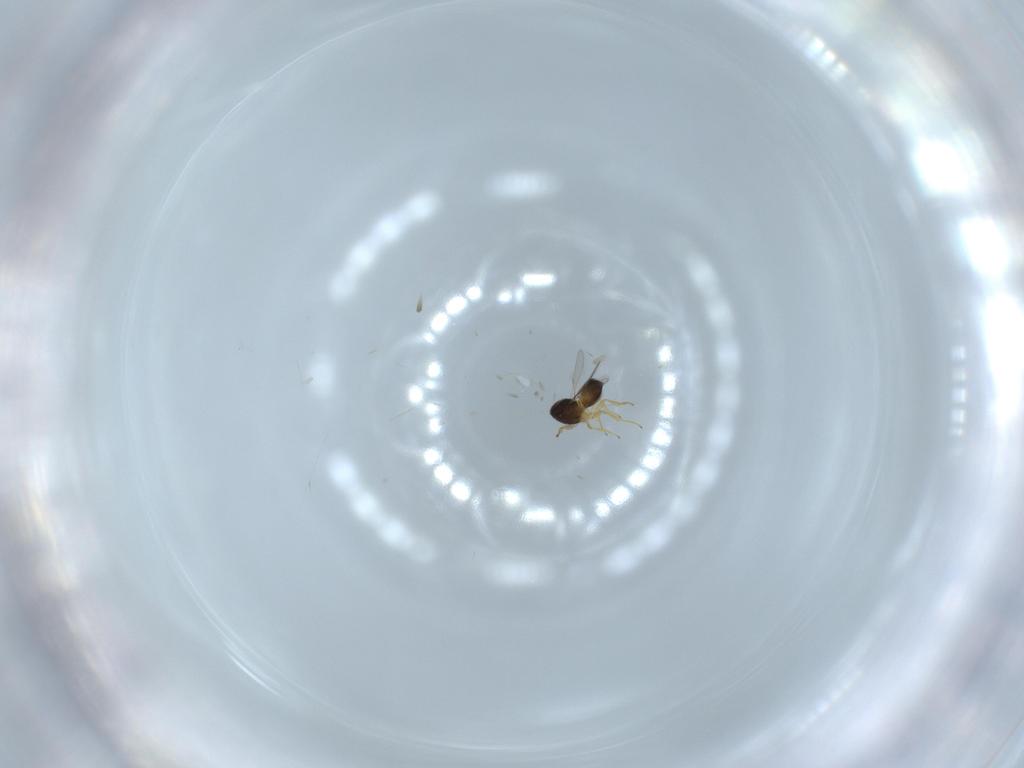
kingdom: Animalia
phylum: Arthropoda
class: Insecta
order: Hymenoptera
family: Scelionidae
